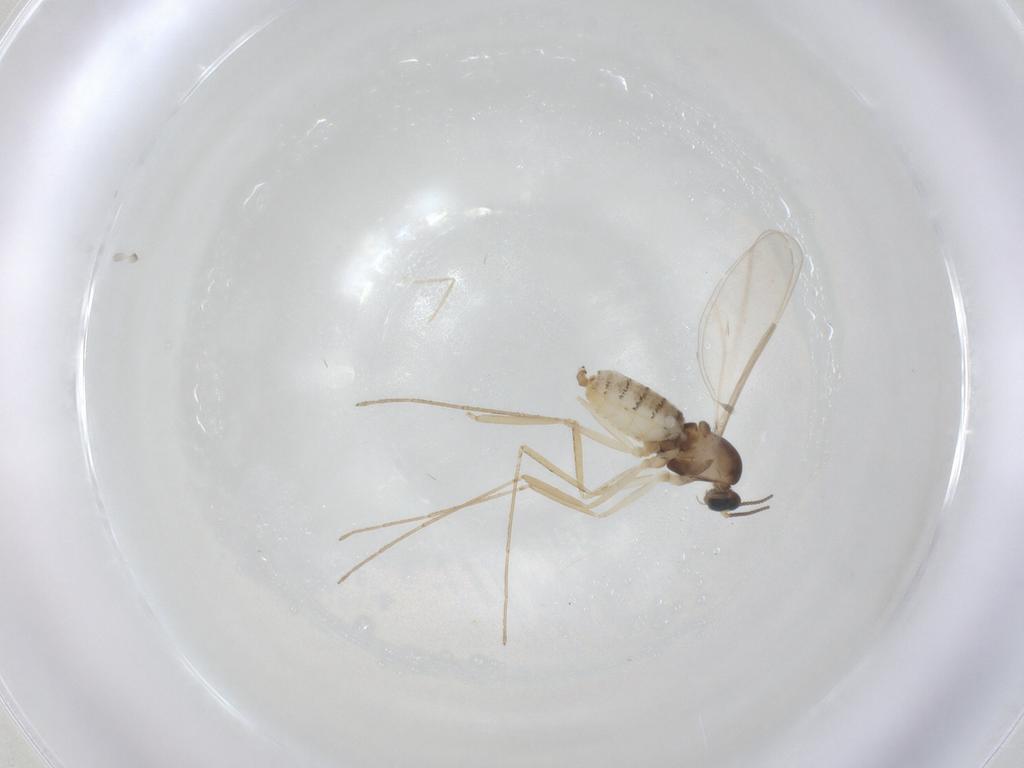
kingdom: Animalia
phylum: Arthropoda
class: Insecta
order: Diptera
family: Cecidomyiidae
